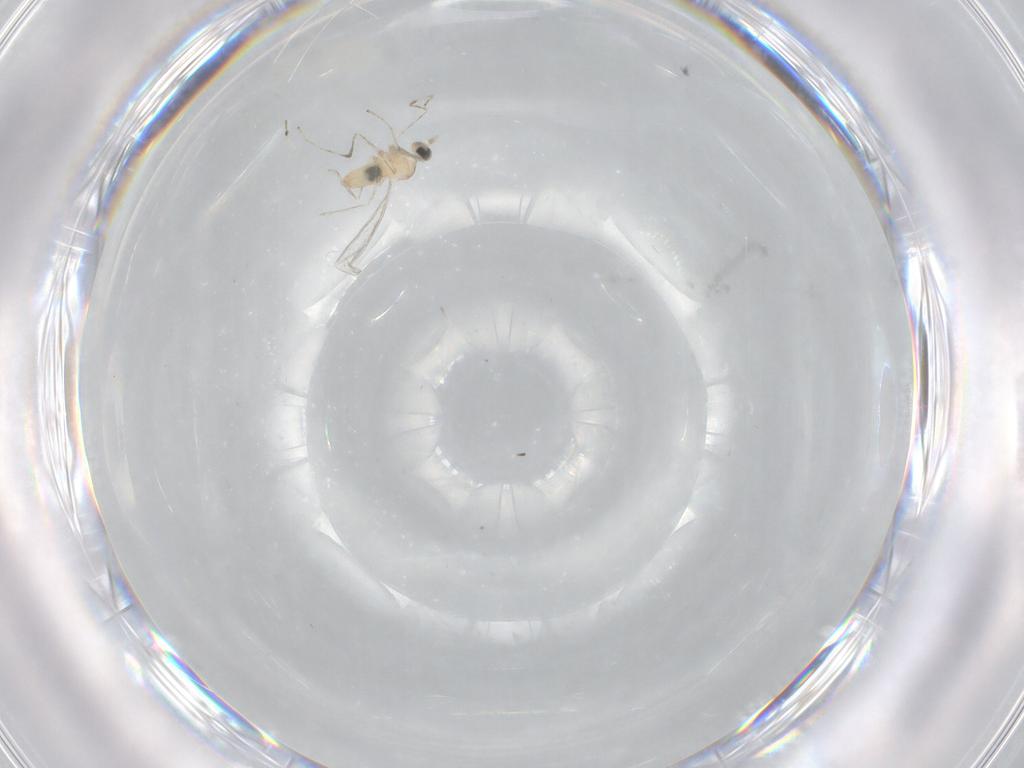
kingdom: Animalia
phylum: Arthropoda
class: Insecta
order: Diptera
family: Cecidomyiidae
